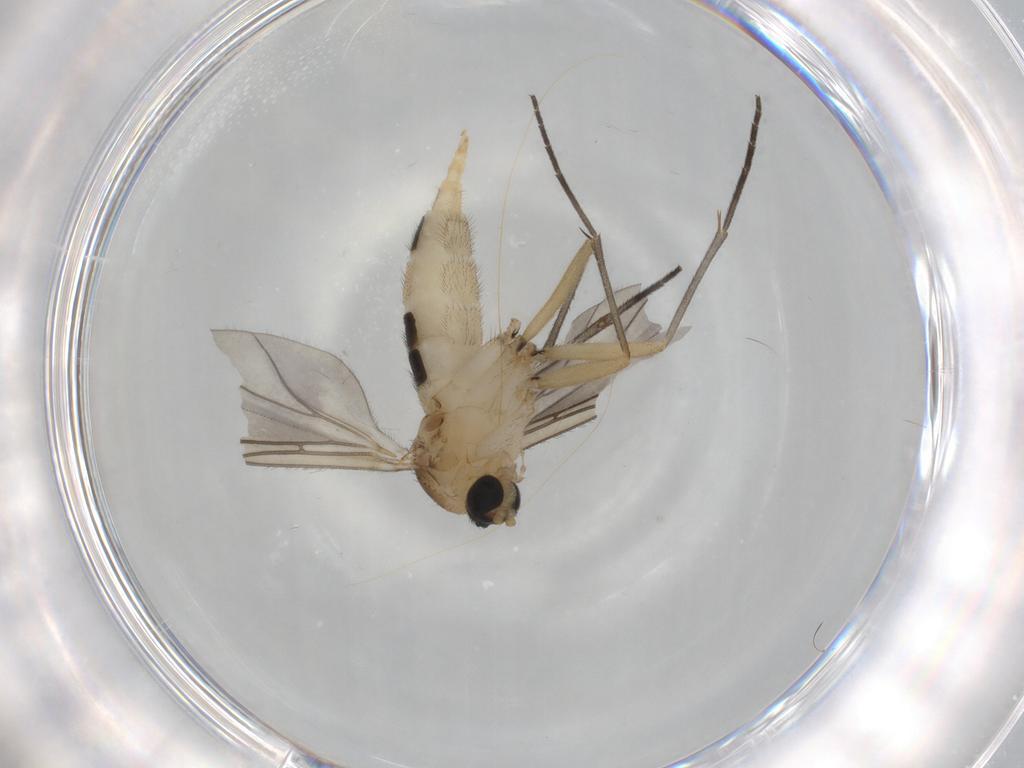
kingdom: Animalia
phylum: Arthropoda
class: Insecta
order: Diptera
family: Sciaridae
